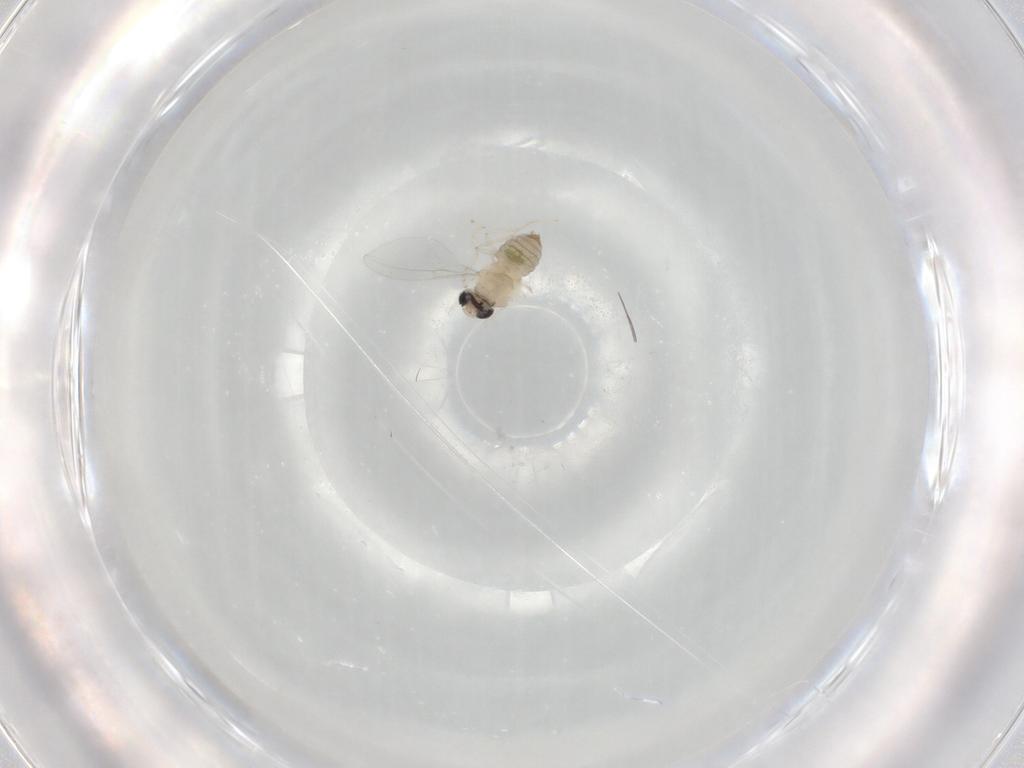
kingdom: Animalia
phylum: Arthropoda
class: Insecta
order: Diptera
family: Cecidomyiidae
